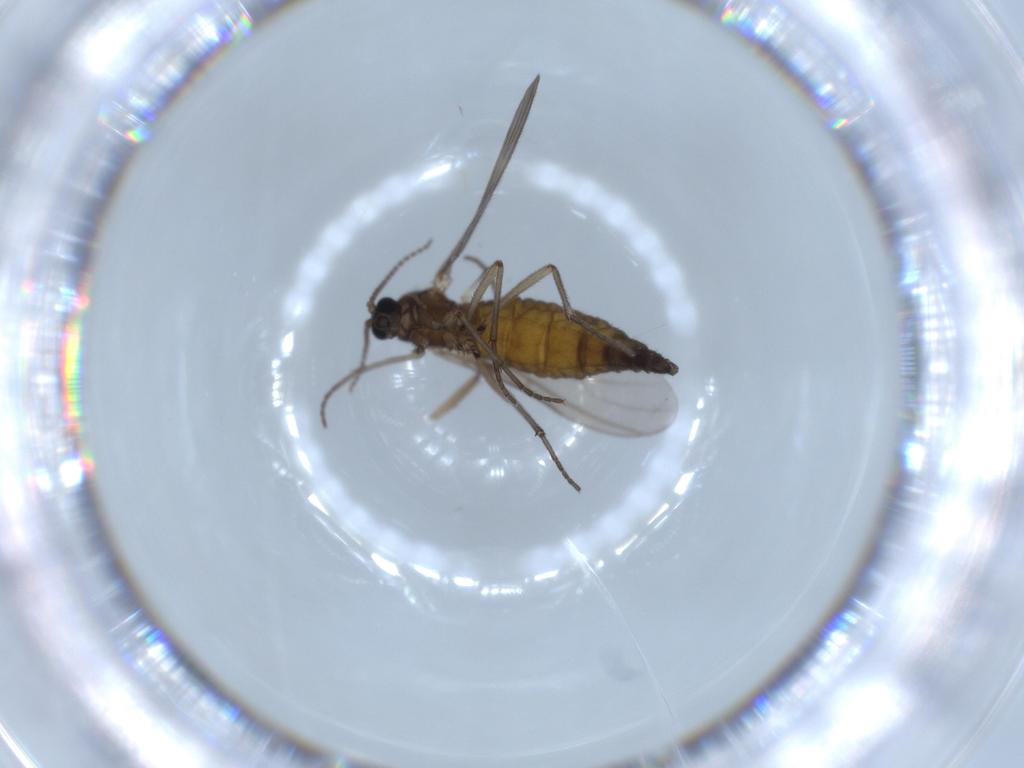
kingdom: Animalia
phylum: Arthropoda
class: Insecta
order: Diptera
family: Sciaridae
